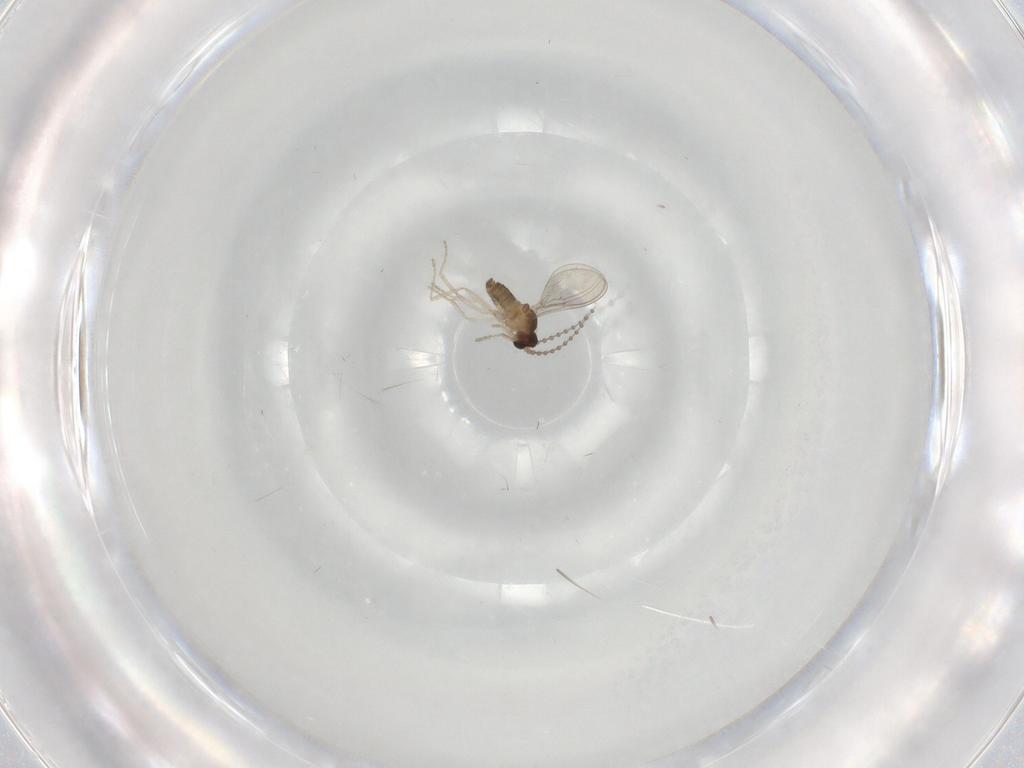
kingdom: Animalia
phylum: Arthropoda
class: Insecta
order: Diptera
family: Cecidomyiidae
